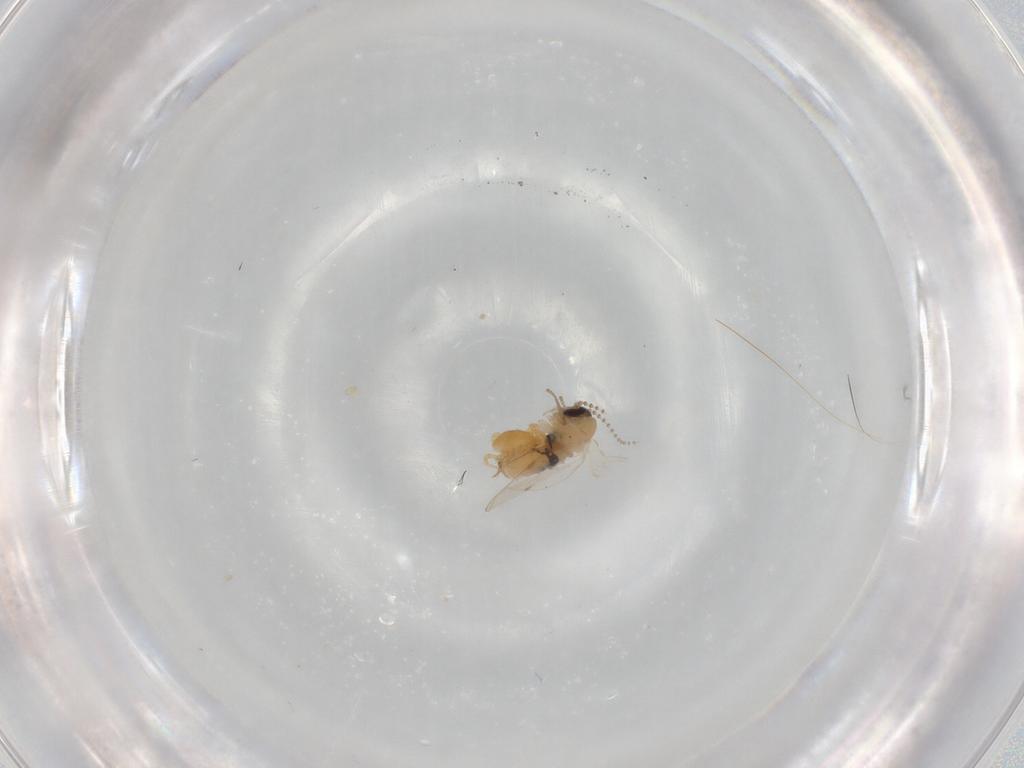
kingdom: Animalia
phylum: Arthropoda
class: Insecta
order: Diptera
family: Psychodidae
